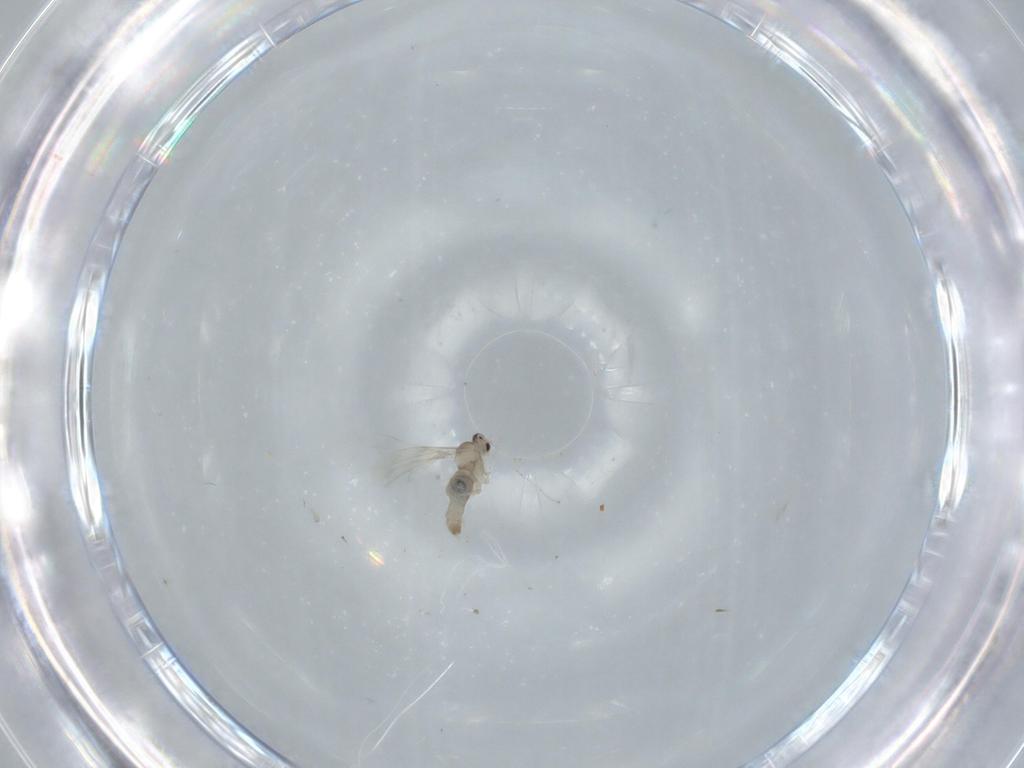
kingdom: Animalia
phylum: Arthropoda
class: Insecta
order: Diptera
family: Cecidomyiidae
